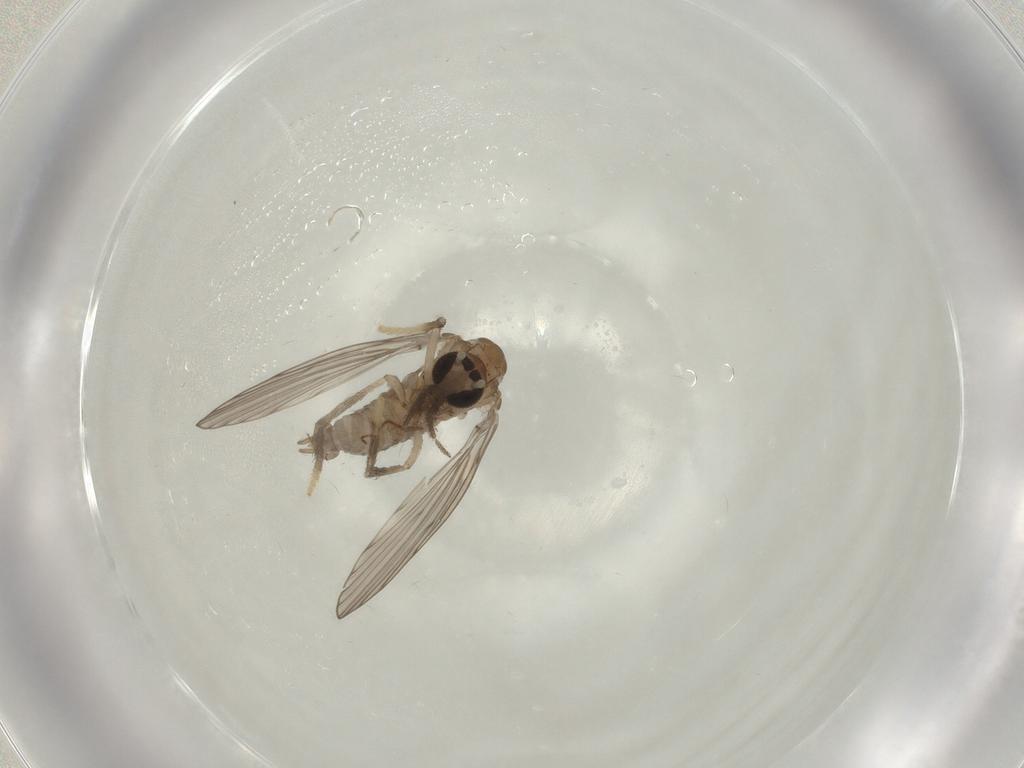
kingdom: Animalia
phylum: Arthropoda
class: Insecta
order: Diptera
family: Psychodidae
